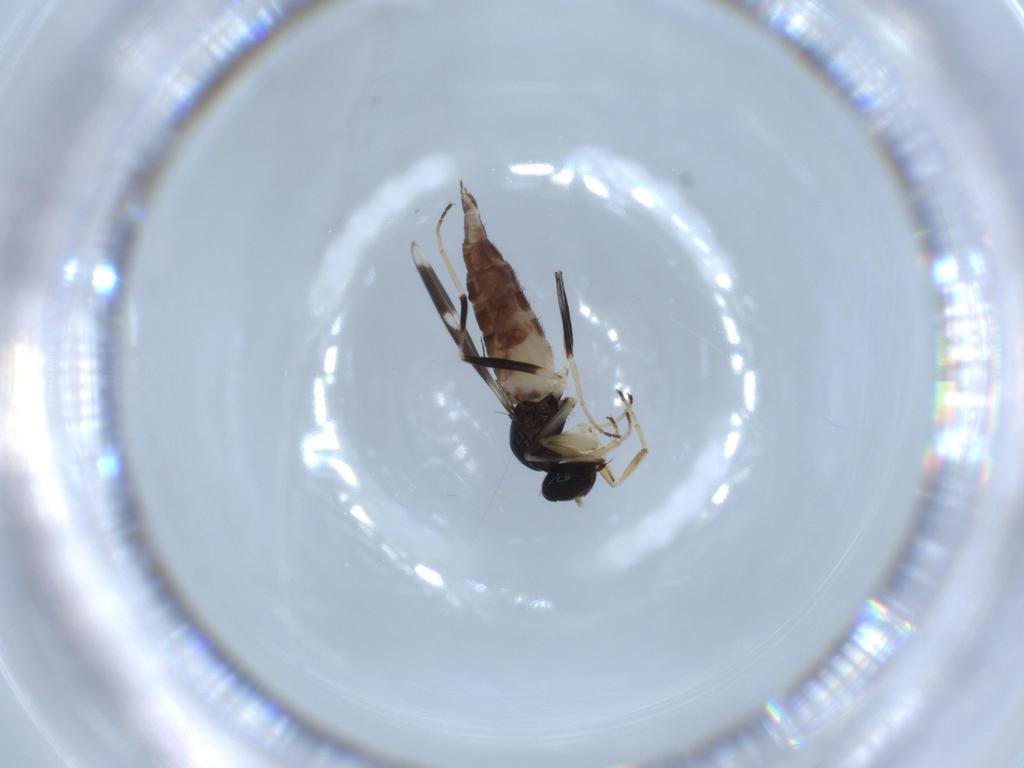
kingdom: Animalia
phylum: Arthropoda
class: Insecta
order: Diptera
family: Hybotidae
